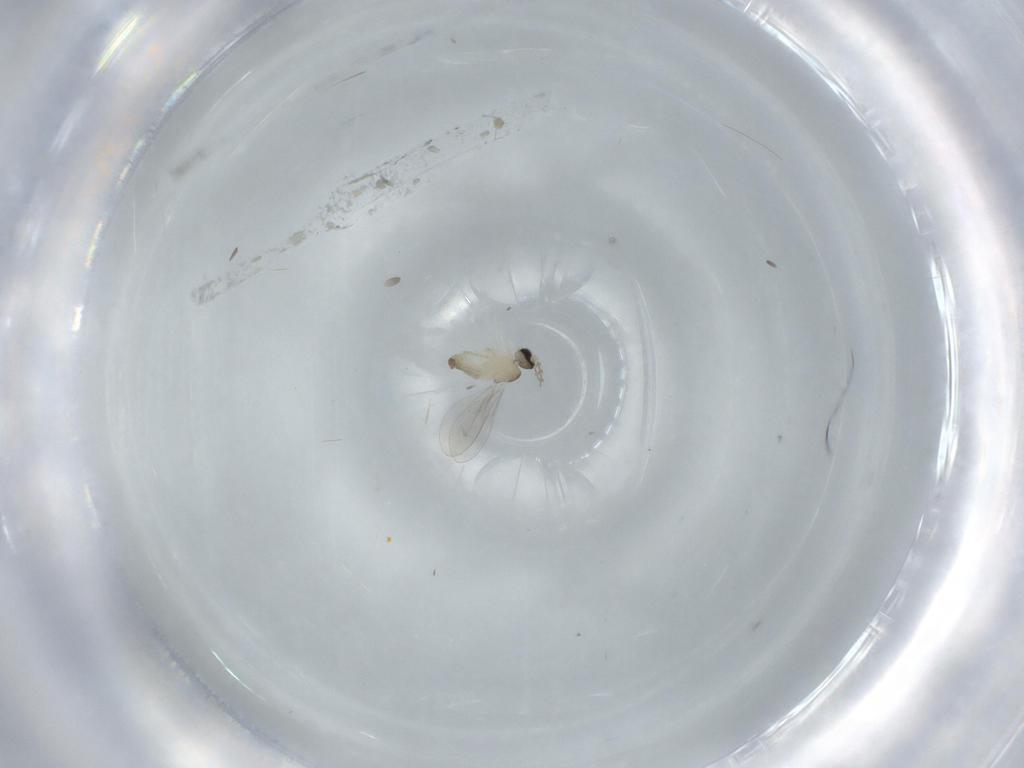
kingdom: Animalia
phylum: Arthropoda
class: Insecta
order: Diptera
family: Cecidomyiidae
